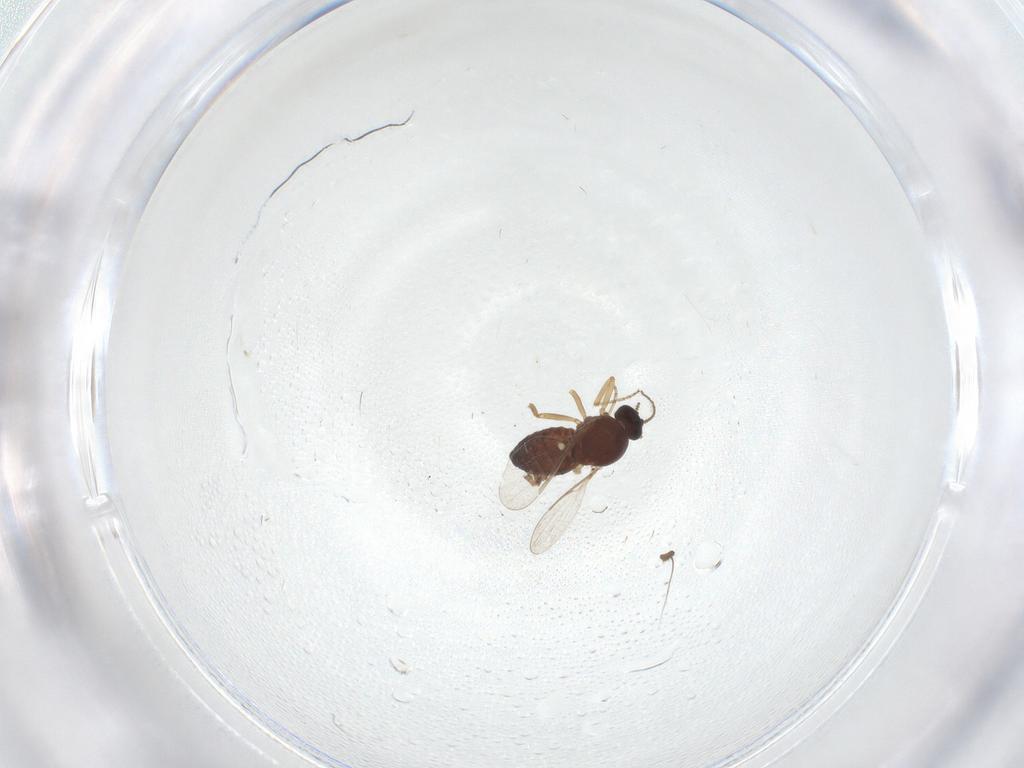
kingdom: Animalia
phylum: Arthropoda
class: Insecta
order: Diptera
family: Ceratopogonidae
